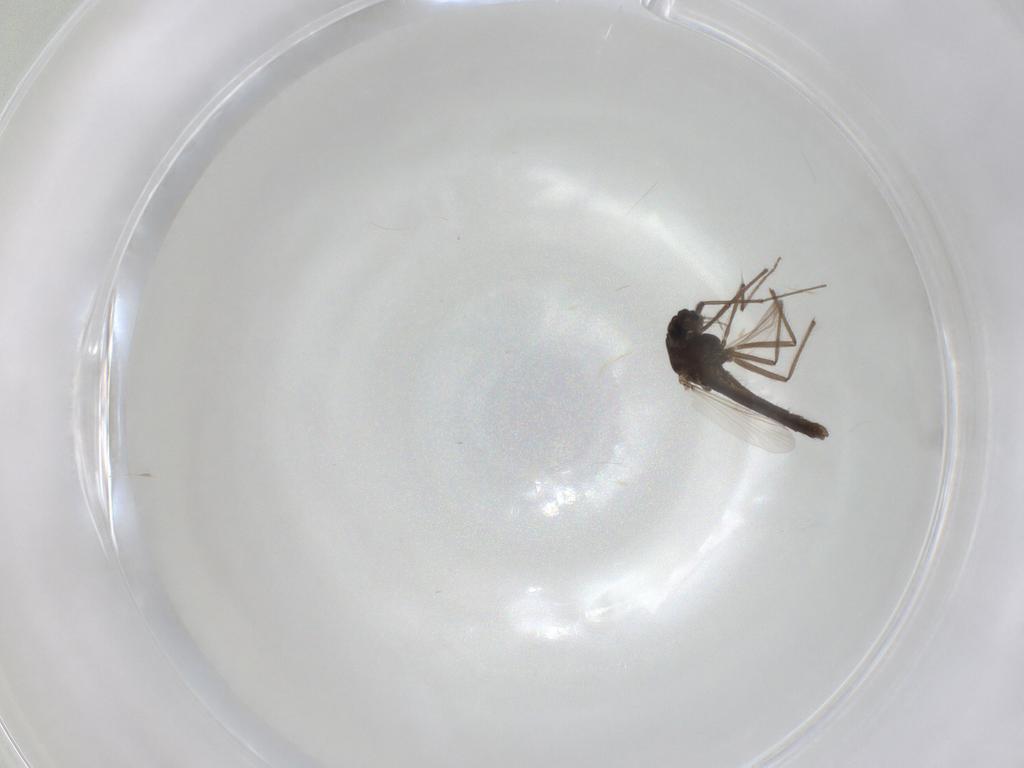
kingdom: Animalia
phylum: Arthropoda
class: Insecta
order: Diptera
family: Chironomidae
